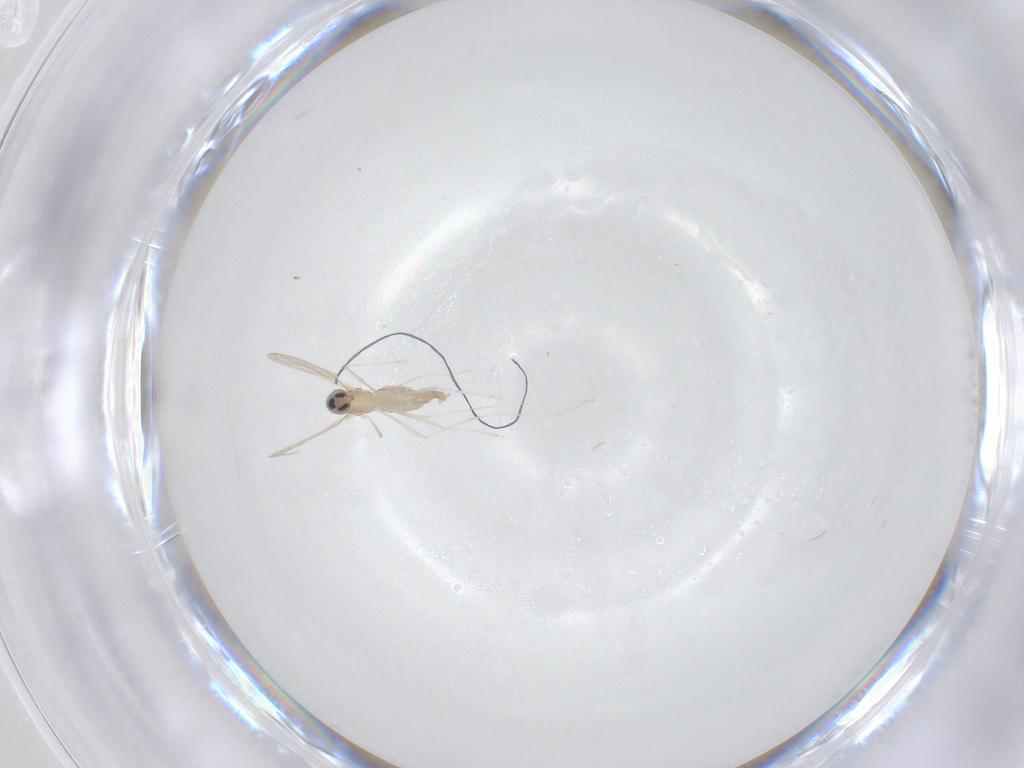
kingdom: Animalia
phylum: Arthropoda
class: Insecta
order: Diptera
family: Cecidomyiidae
